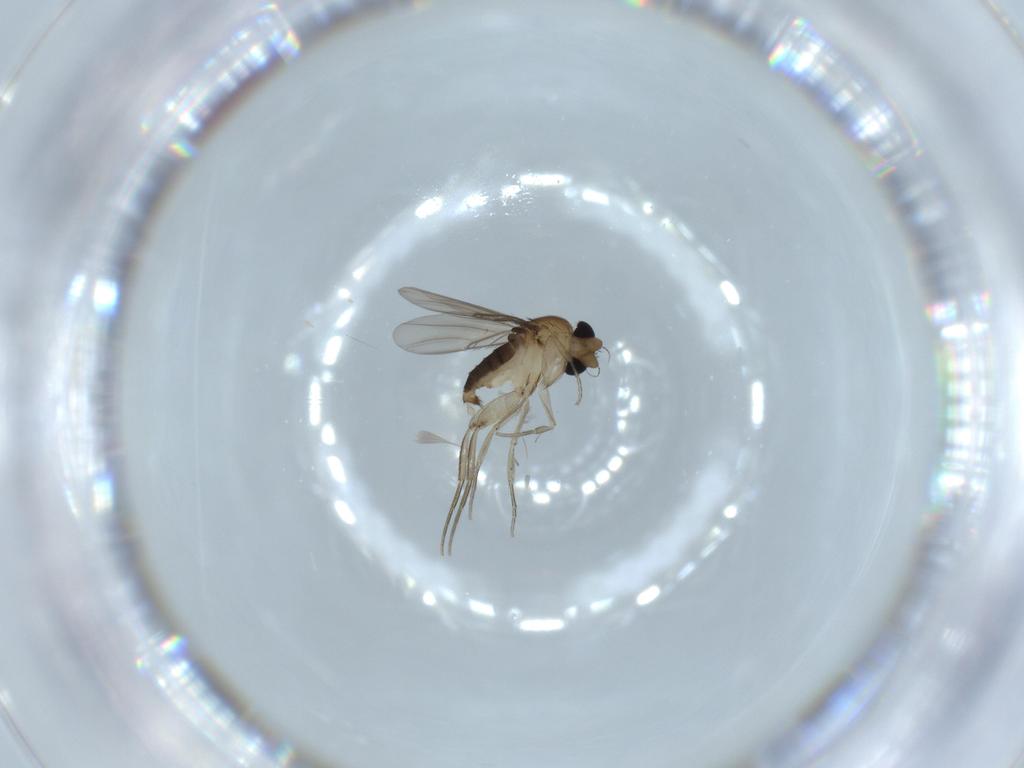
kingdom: Animalia
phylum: Arthropoda
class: Insecta
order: Diptera
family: Phoridae
